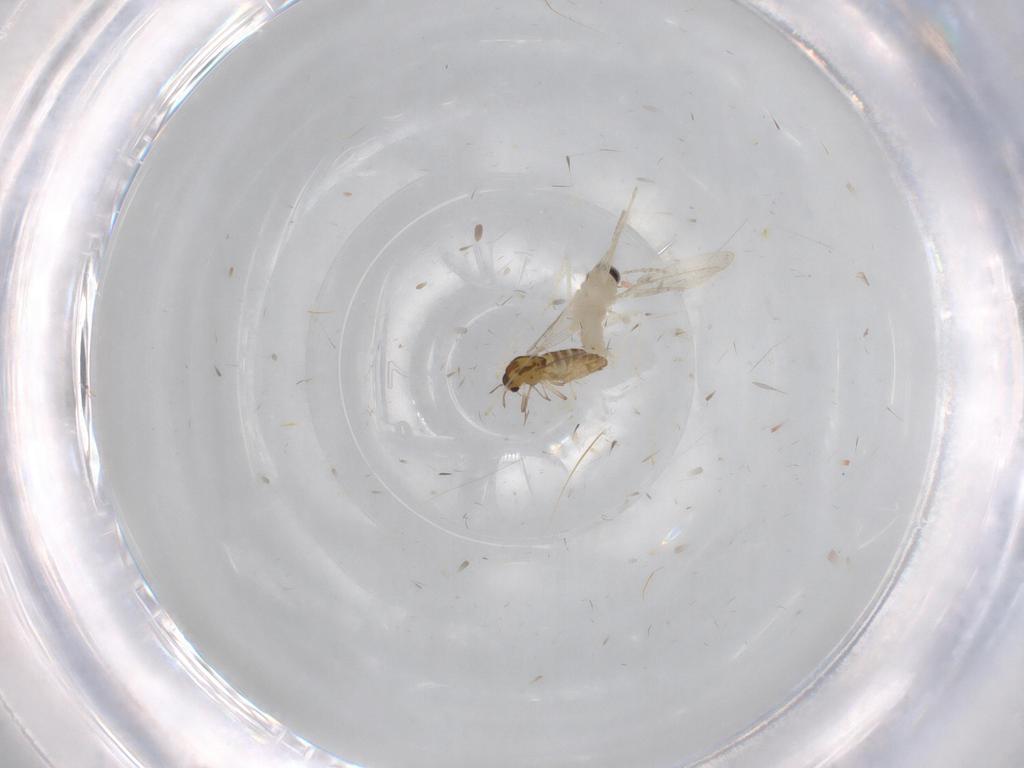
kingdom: Animalia
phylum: Arthropoda
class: Insecta
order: Diptera
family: Chironomidae
